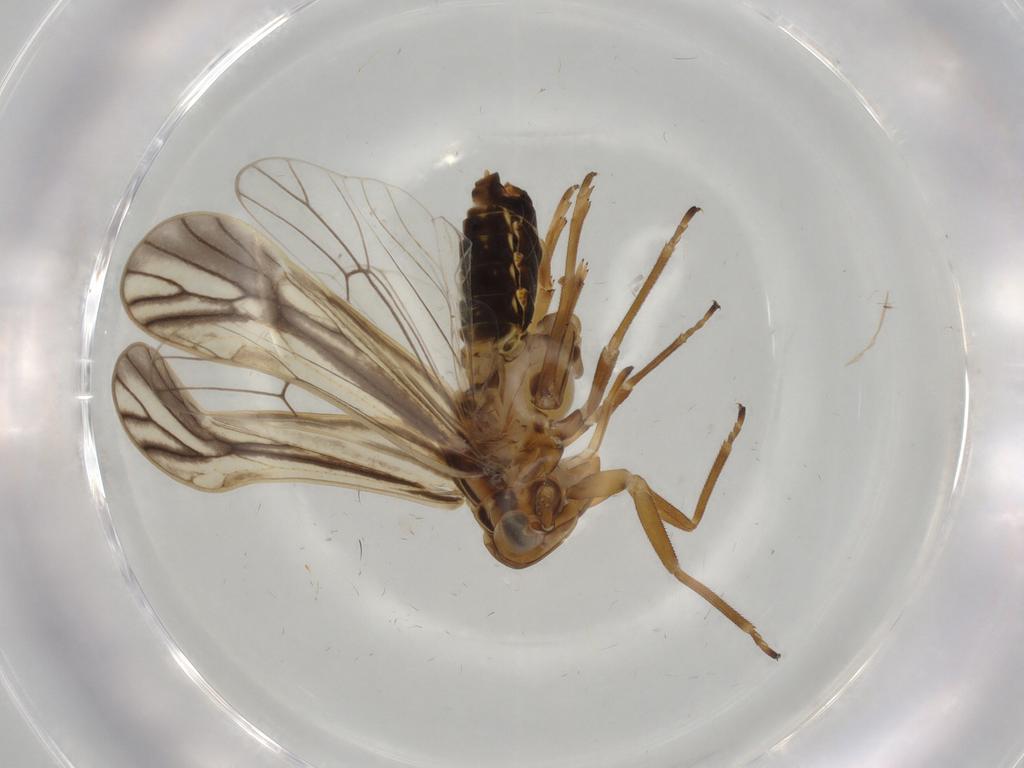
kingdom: Animalia
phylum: Arthropoda
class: Insecta
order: Hemiptera
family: Delphacidae
